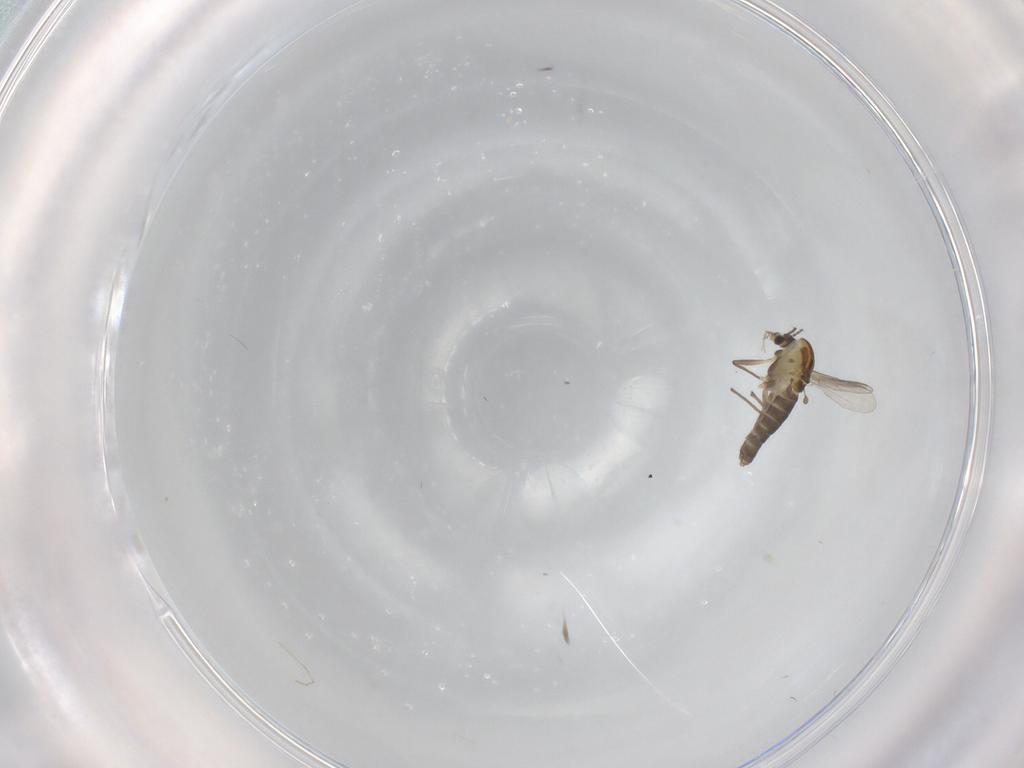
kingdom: Animalia
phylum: Arthropoda
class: Insecta
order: Diptera
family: Chironomidae
